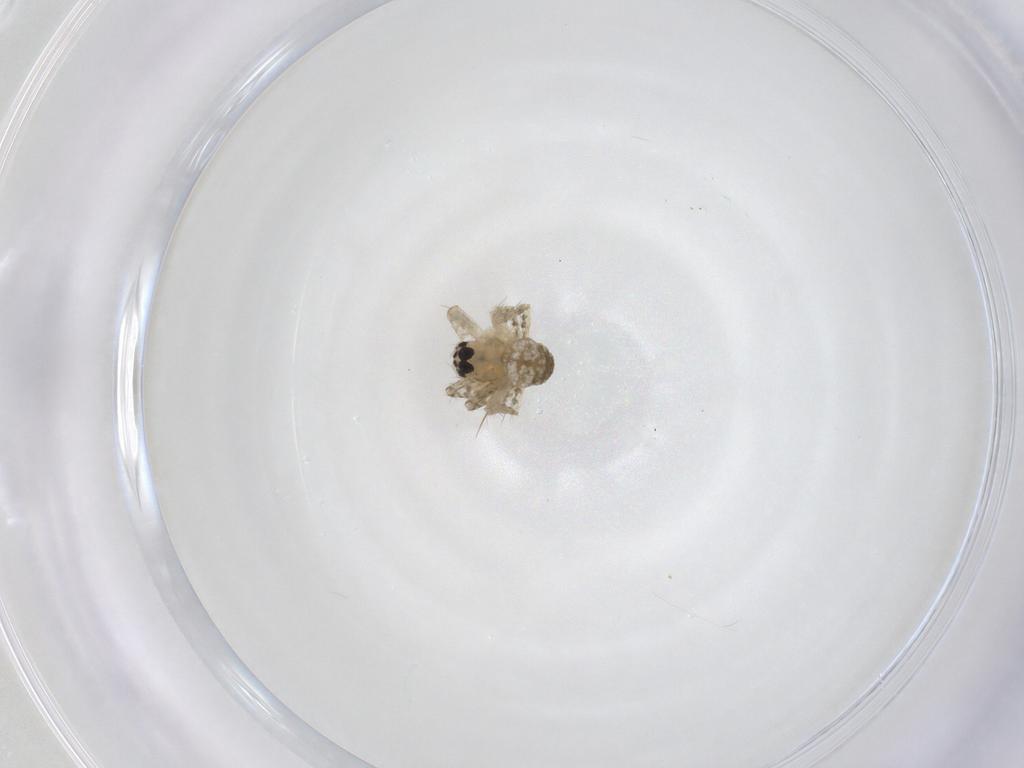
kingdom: Animalia
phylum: Arthropoda
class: Arachnida
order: Araneae
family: Araneidae
